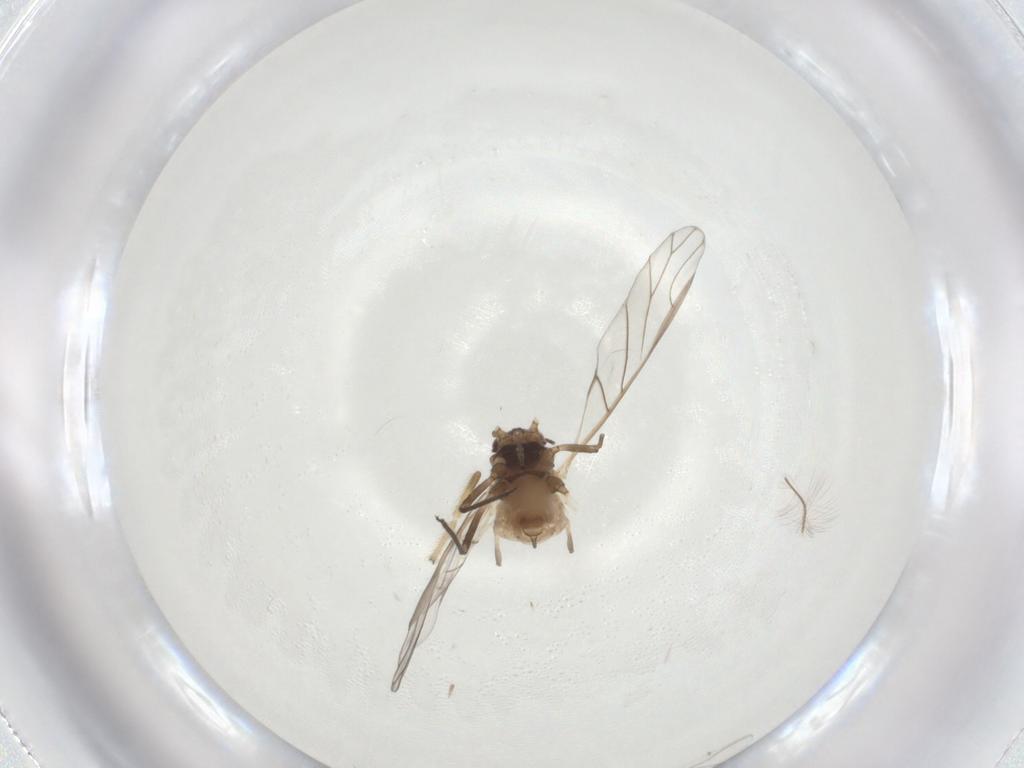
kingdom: Animalia
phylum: Arthropoda
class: Insecta
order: Hemiptera
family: Aphididae
